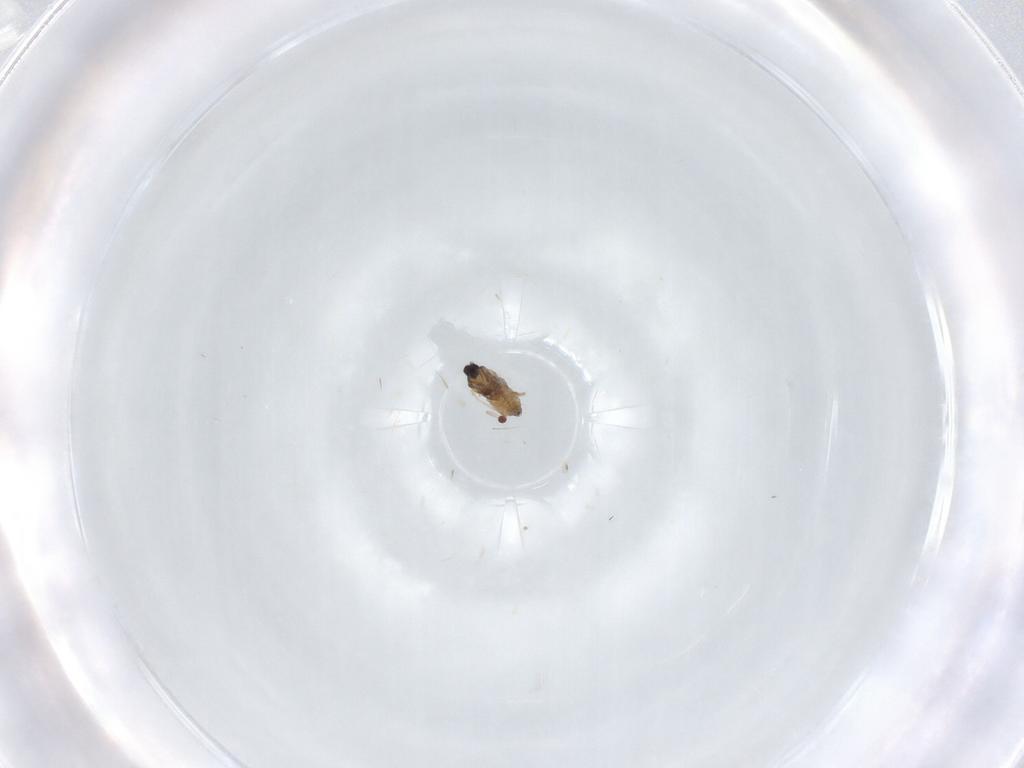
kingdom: Animalia
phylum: Arthropoda
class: Insecta
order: Diptera
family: Cecidomyiidae
